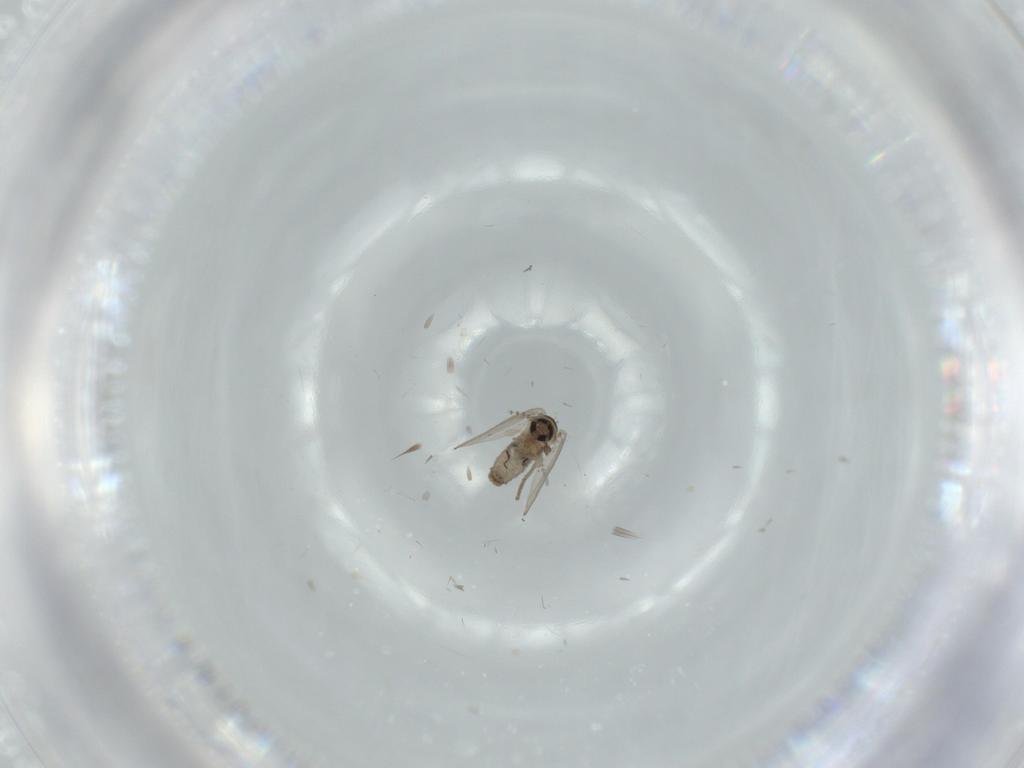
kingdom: Animalia
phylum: Arthropoda
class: Insecta
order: Diptera
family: Psychodidae
